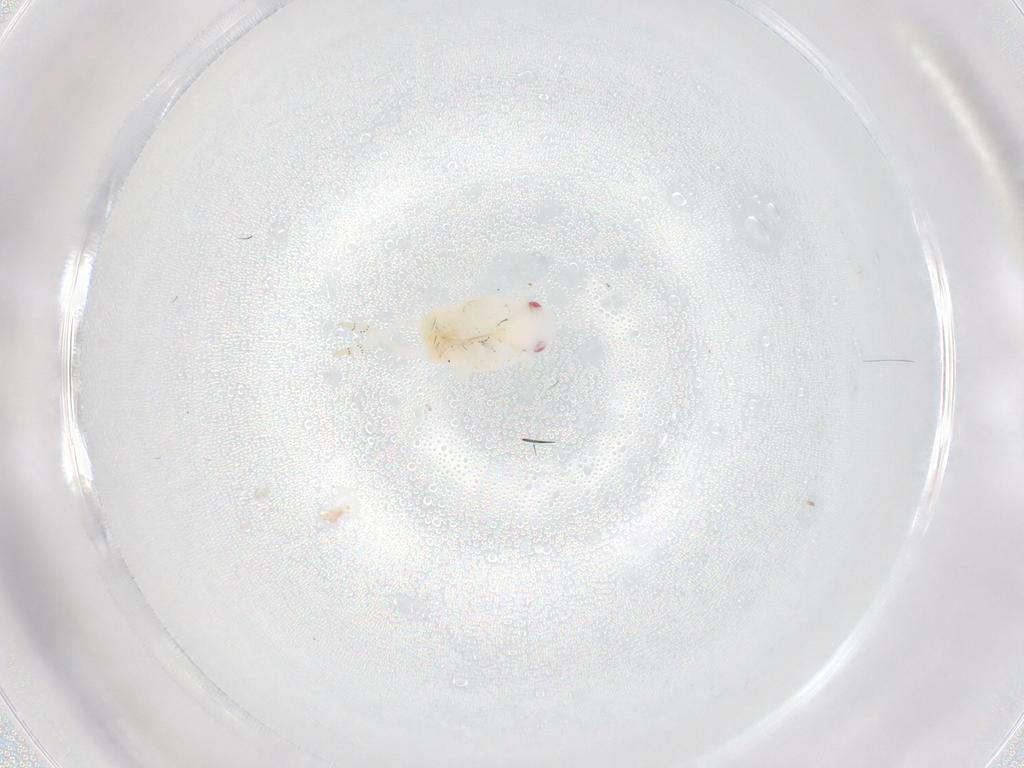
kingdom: Animalia
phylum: Arthropoda
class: Insecta
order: Hemiptera
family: Flatidae
